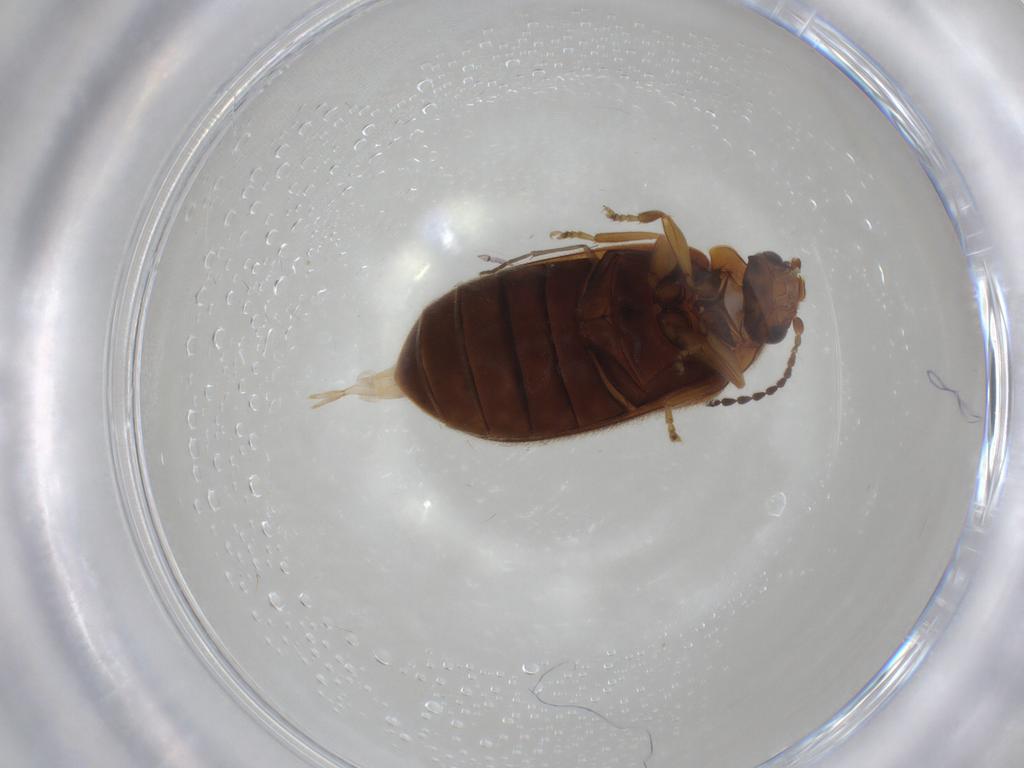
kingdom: Animalia
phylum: Arthropoda
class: Insecta
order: Coleoptera
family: Scirtidae
